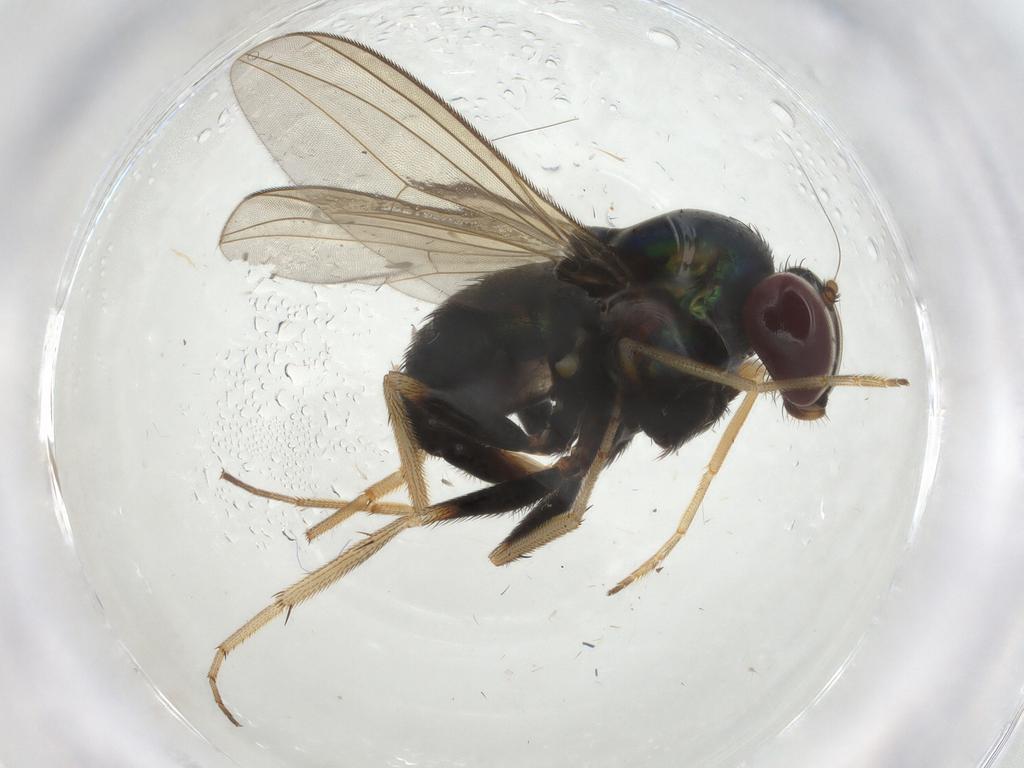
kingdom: Animalia
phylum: Arthropoda
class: Insecta
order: Diptera
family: Dolichopodidae
